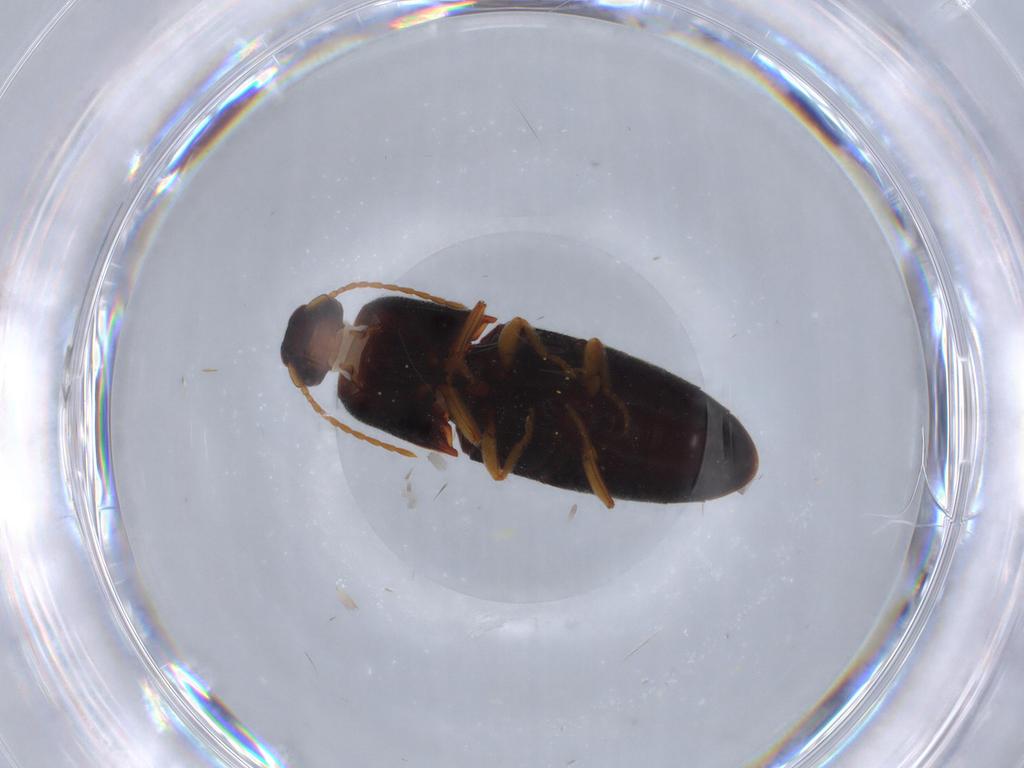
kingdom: Animalia
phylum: Arthropoda
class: Insecta
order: Coleoptera
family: Elateridae
